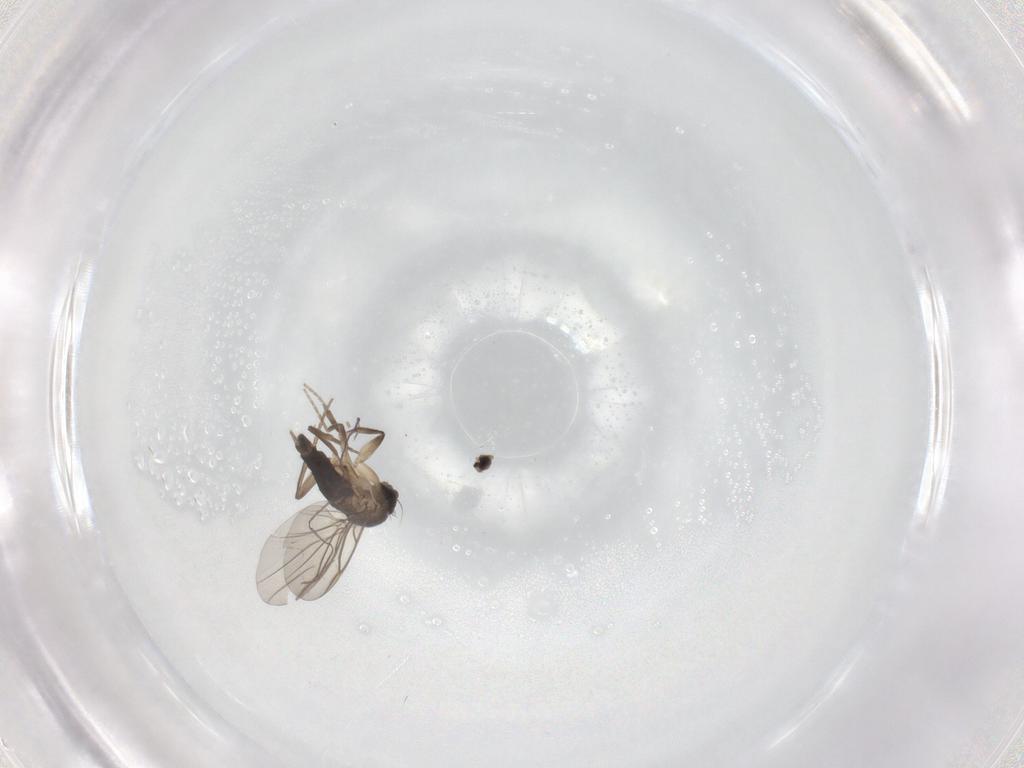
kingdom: Animalia
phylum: Arthropoda
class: Insecta
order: Diptera
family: Phoridae
